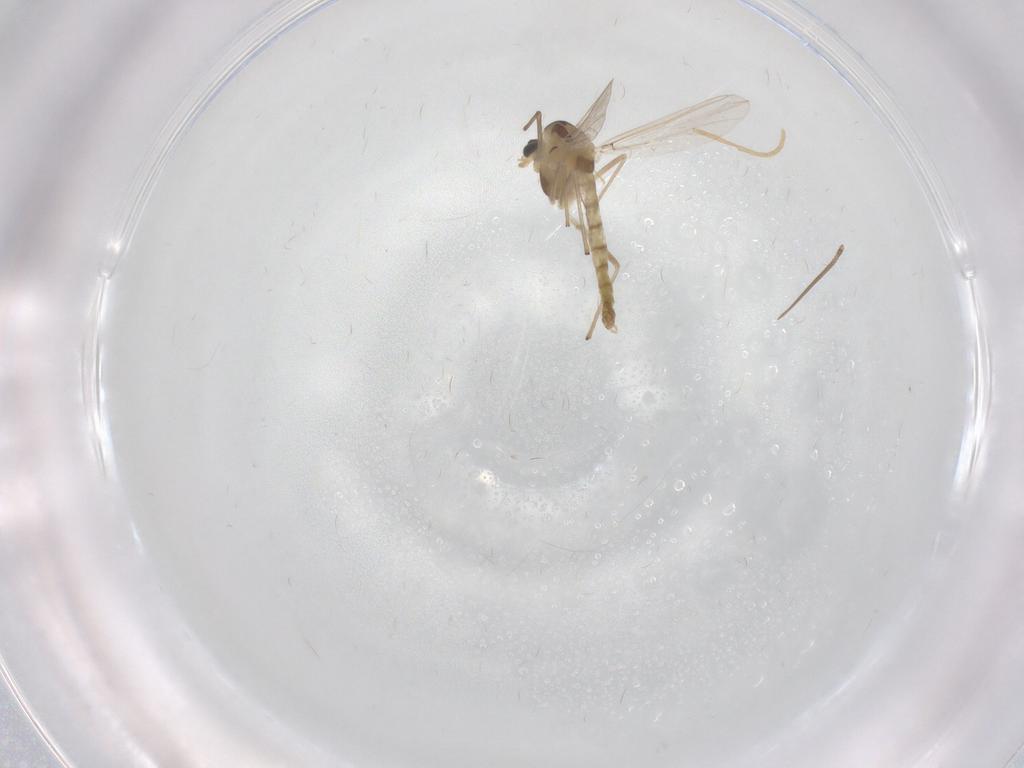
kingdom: Animalia
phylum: Arthropoda
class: Insecta
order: Diptera
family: Chironomidae
